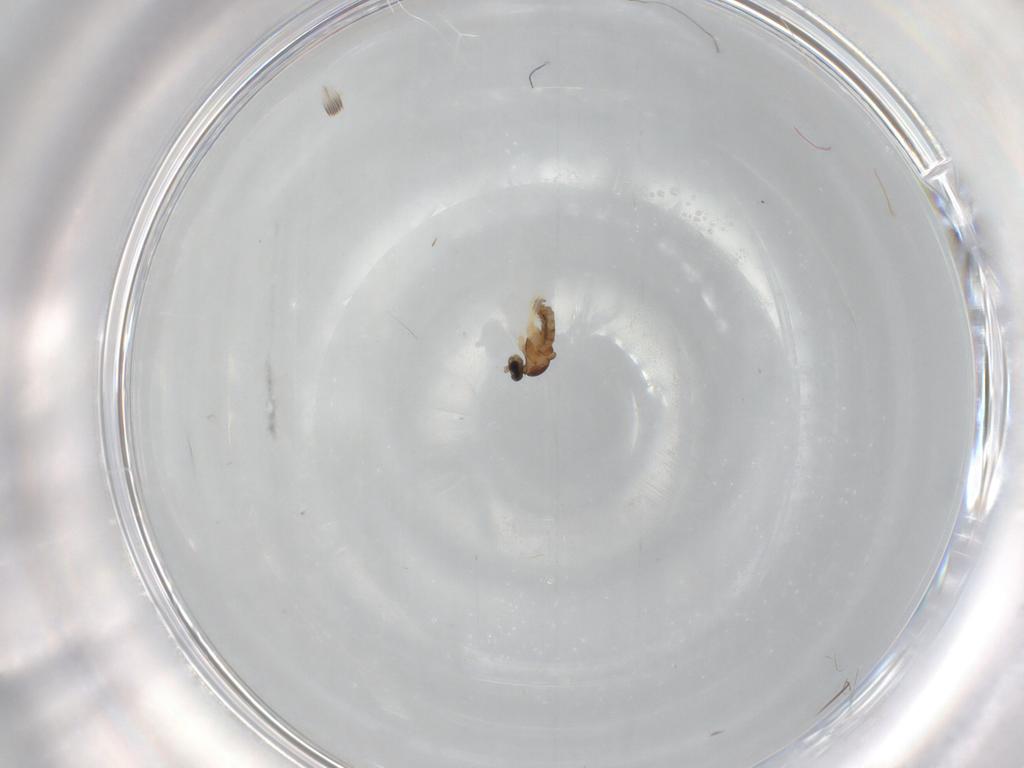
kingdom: Animalia
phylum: Arthropoda
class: Insecta
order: Diptera
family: Cecidomyiidae
